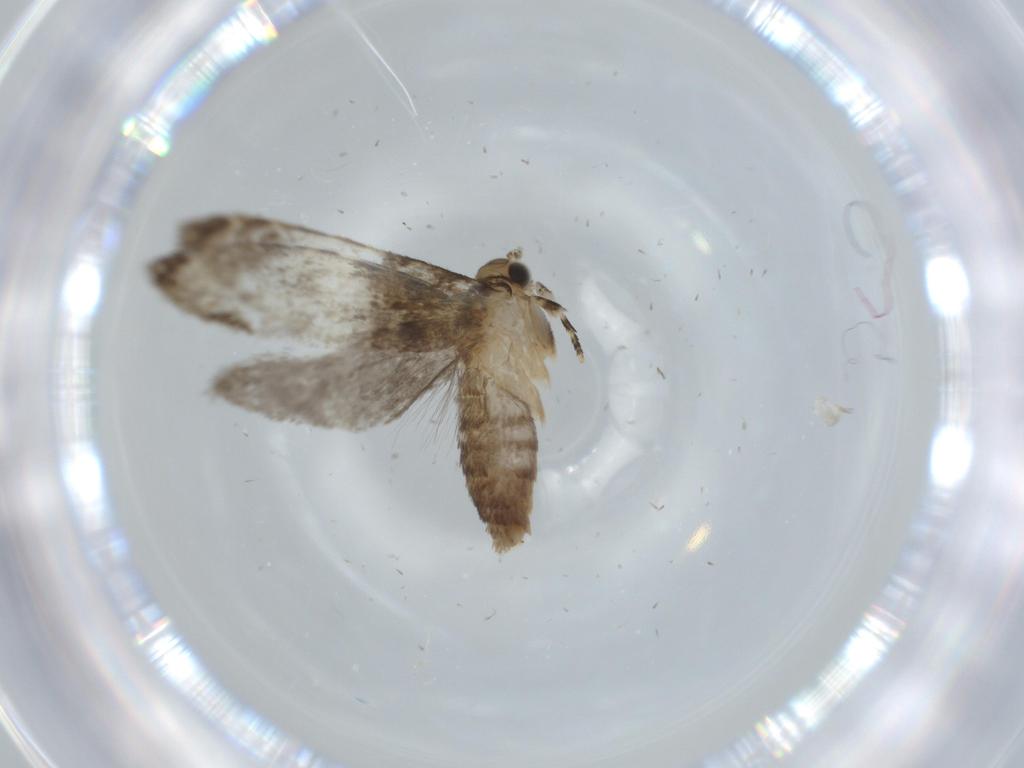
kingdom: Animalia
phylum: Arthropoda
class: Insecta
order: Lepidoptera
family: Tineidae
